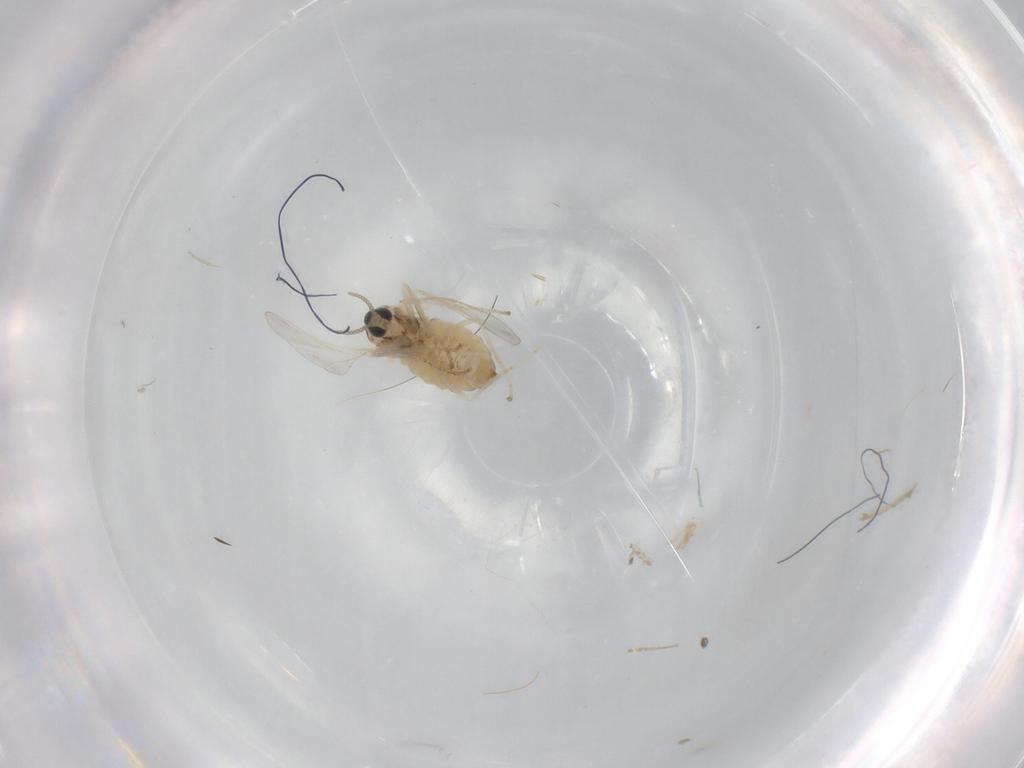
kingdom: Animalia
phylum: Arthropoda
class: Insecta
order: Diptera
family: Cecidomyiidae
